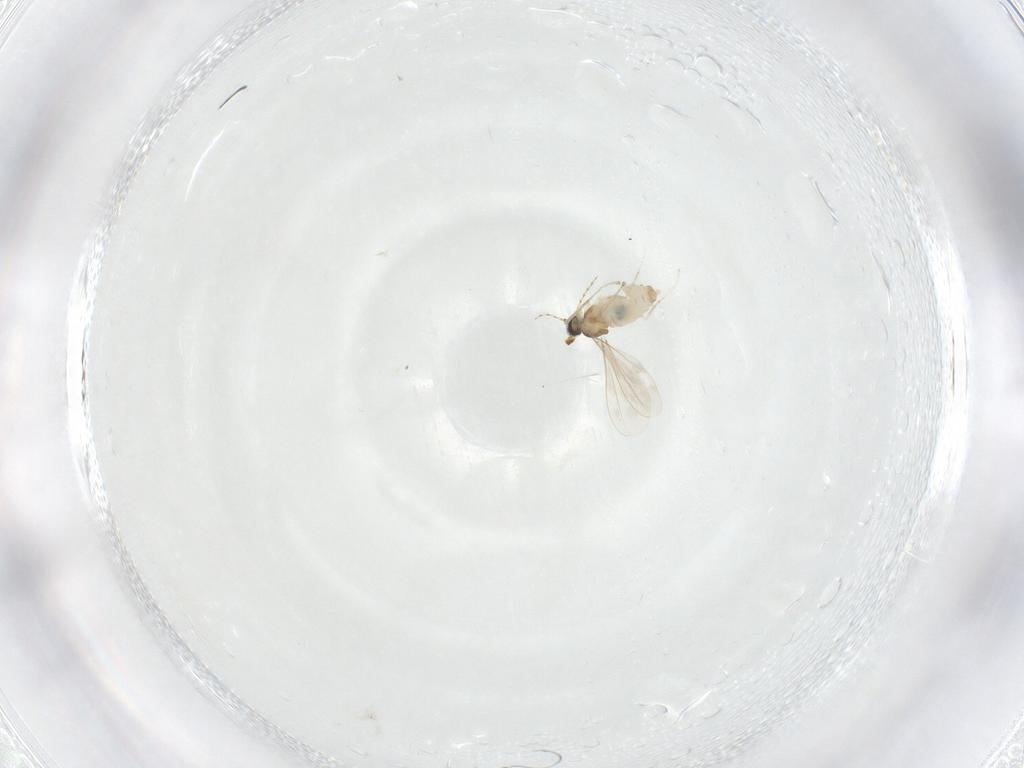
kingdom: Animalia
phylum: Arthropoda
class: Insecta
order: Diptera
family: Cecidomyiidae
